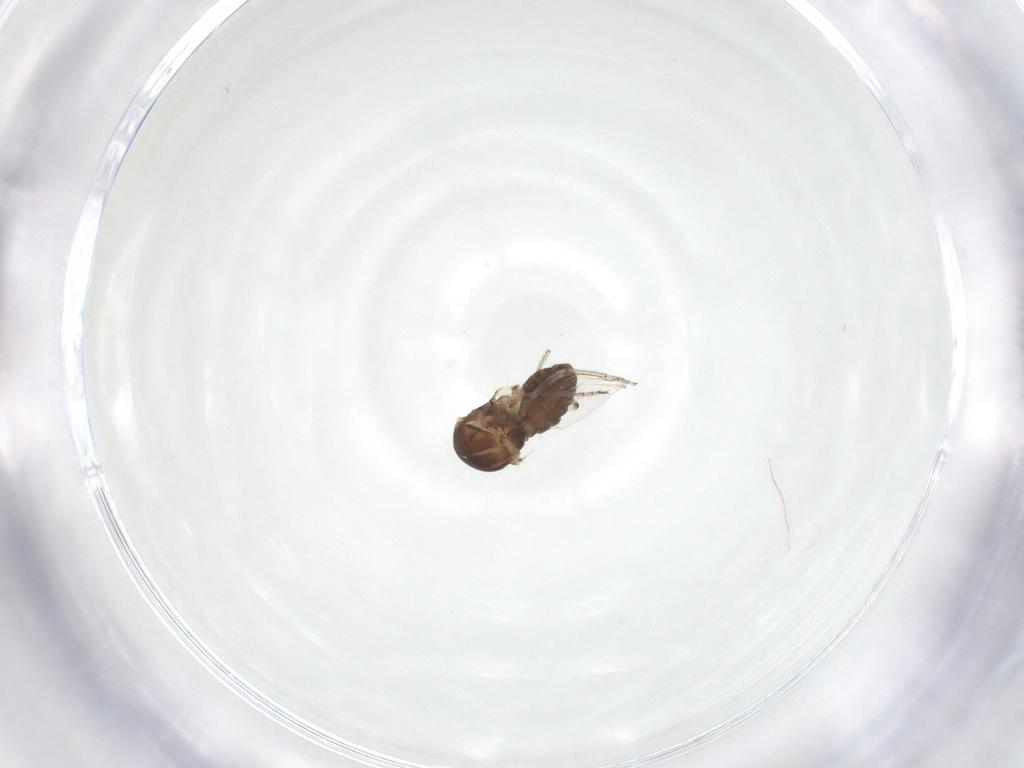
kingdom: Animalia
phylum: Arthropoda
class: Insecta
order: Diptera
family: Ceratopogonidae
